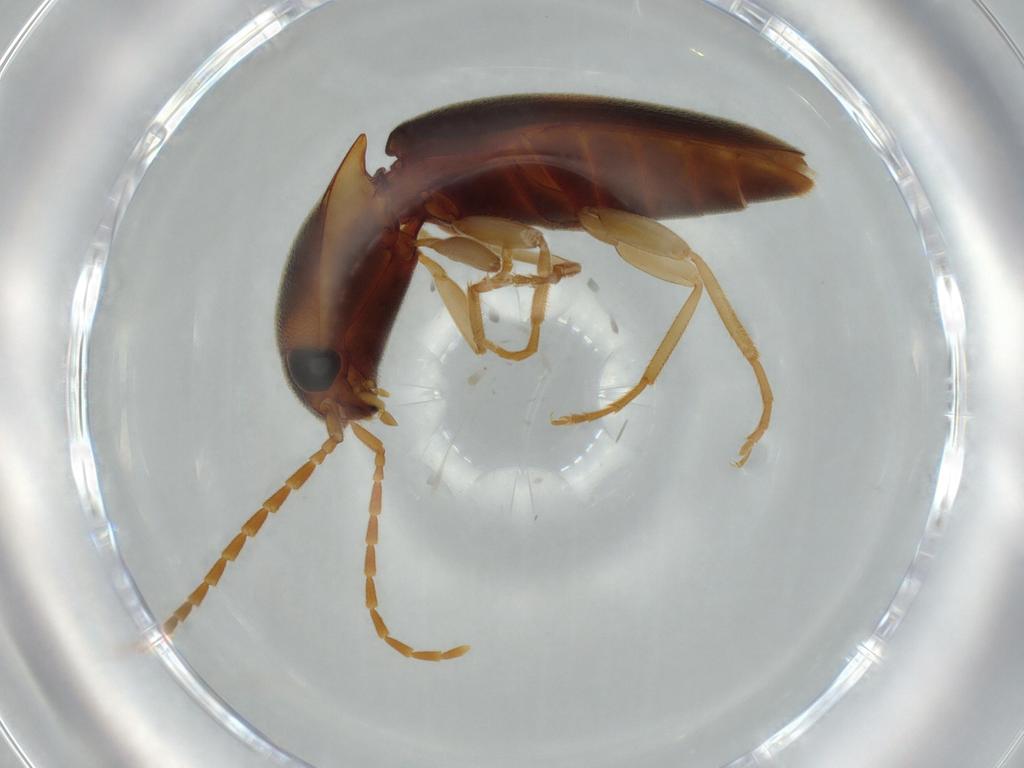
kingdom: Animalia
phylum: Arthropoda
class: Insecta
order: Coleoptera
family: Elateridae
